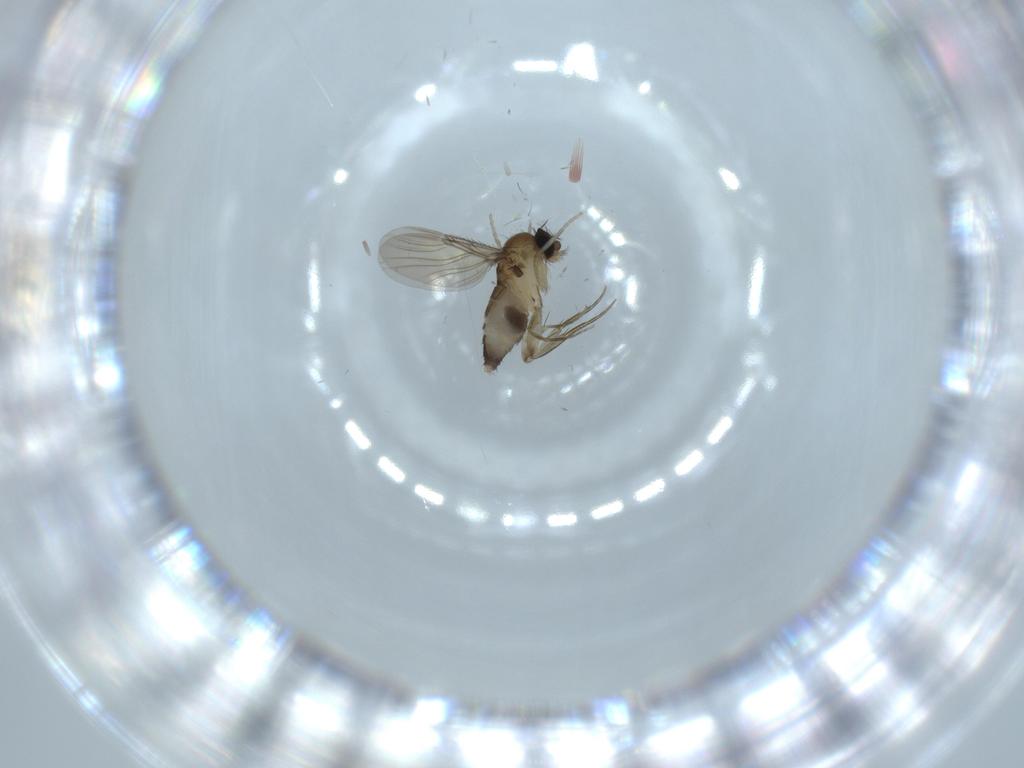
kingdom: Animalia
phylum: Arthropoda
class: Insecta
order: Diptera
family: Phoridae
